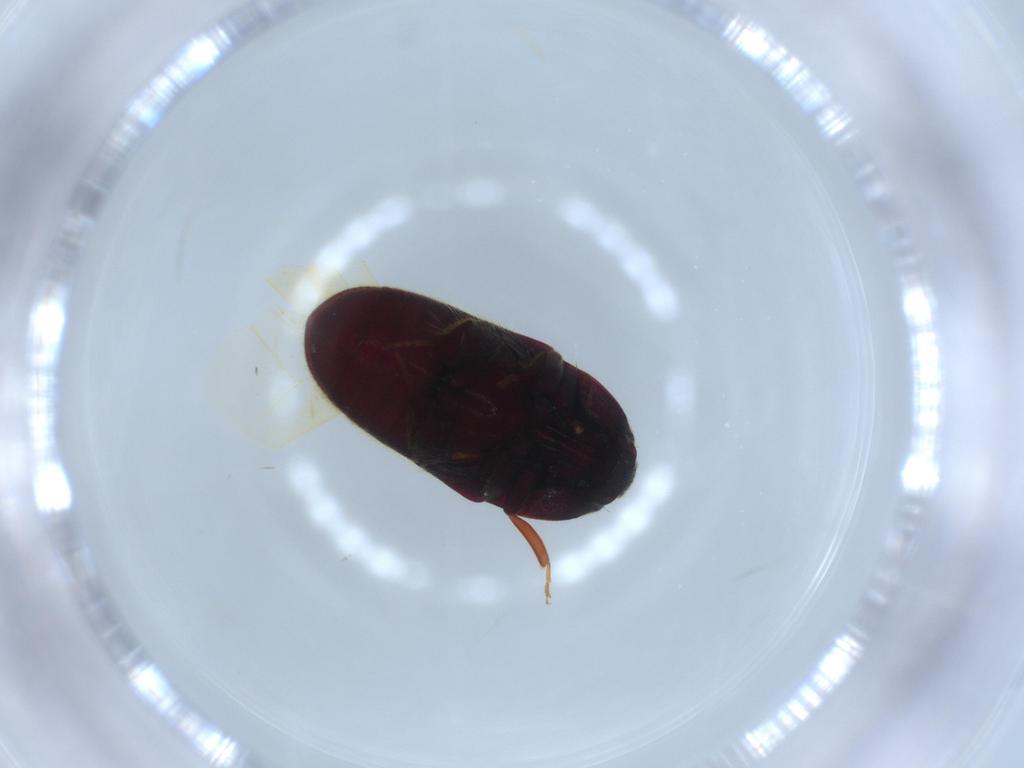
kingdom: Animalia
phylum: Arthropoda
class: Insecta
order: Coleoptera
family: Throscidae
